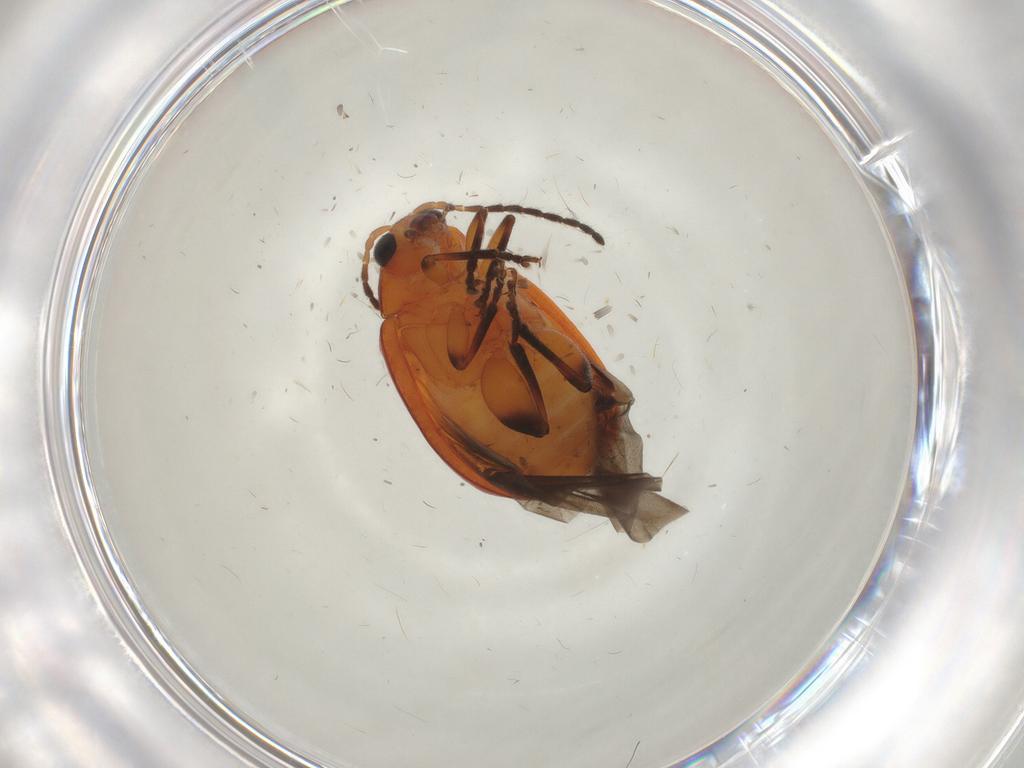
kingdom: Animalia
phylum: Arthropoda
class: Insecta
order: Coleoptera
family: Chrysomelidae
